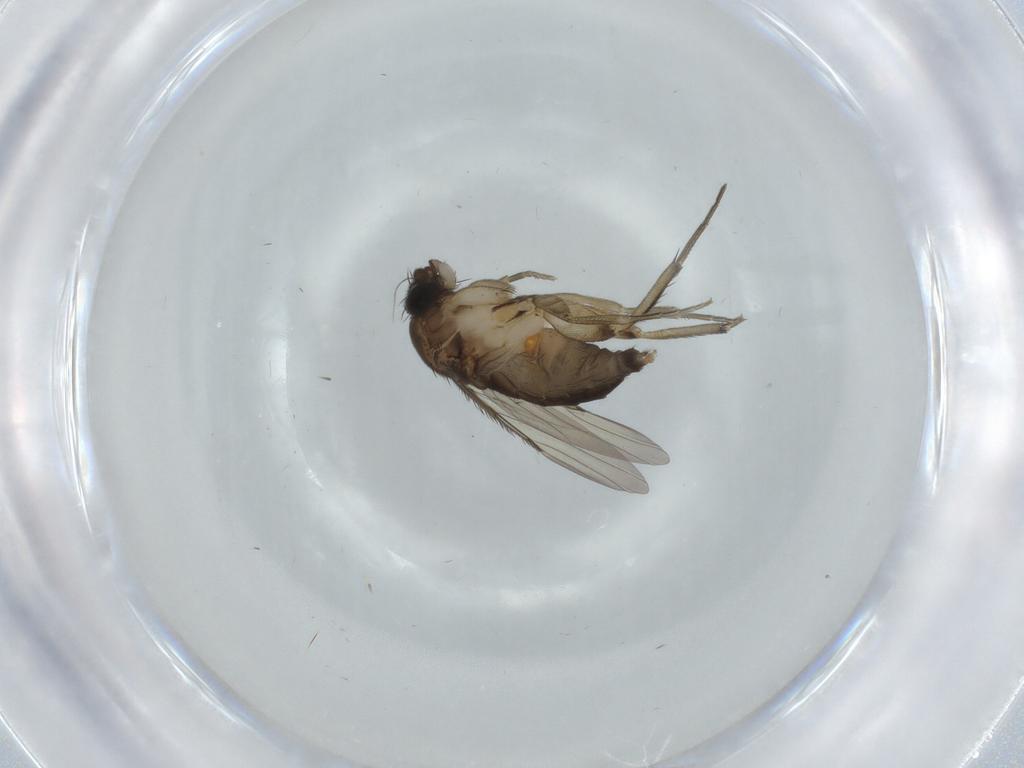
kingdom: Animalia
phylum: Arthropoda
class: Insecta
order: Diptera
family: Phoridae
